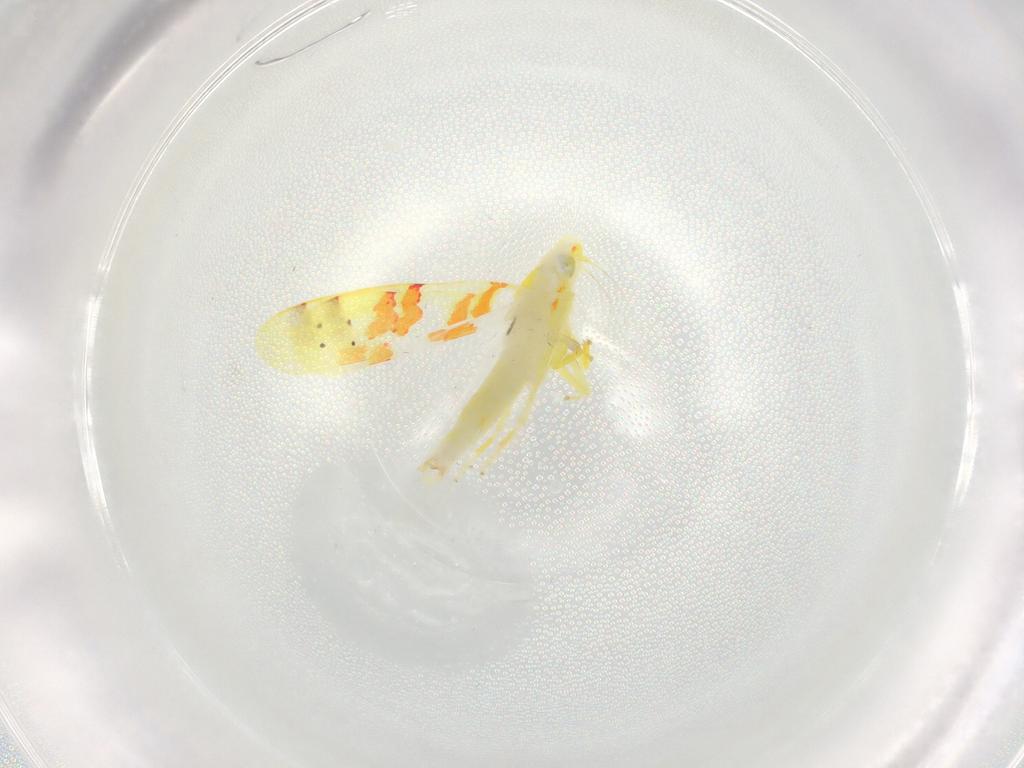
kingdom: Animalia
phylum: Arthropoda
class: Insecta
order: Hemiptera
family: Cicadellidae
